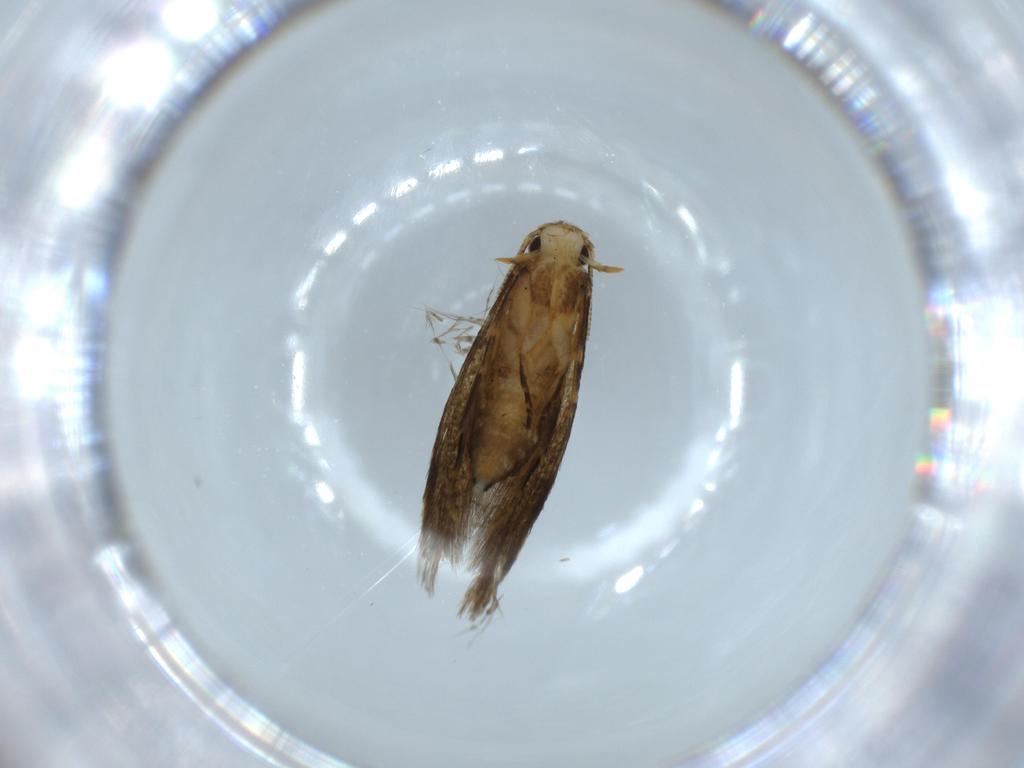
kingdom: Animalia
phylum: Arthropoda
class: Insecta
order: Lepidoptera
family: Tineidae
